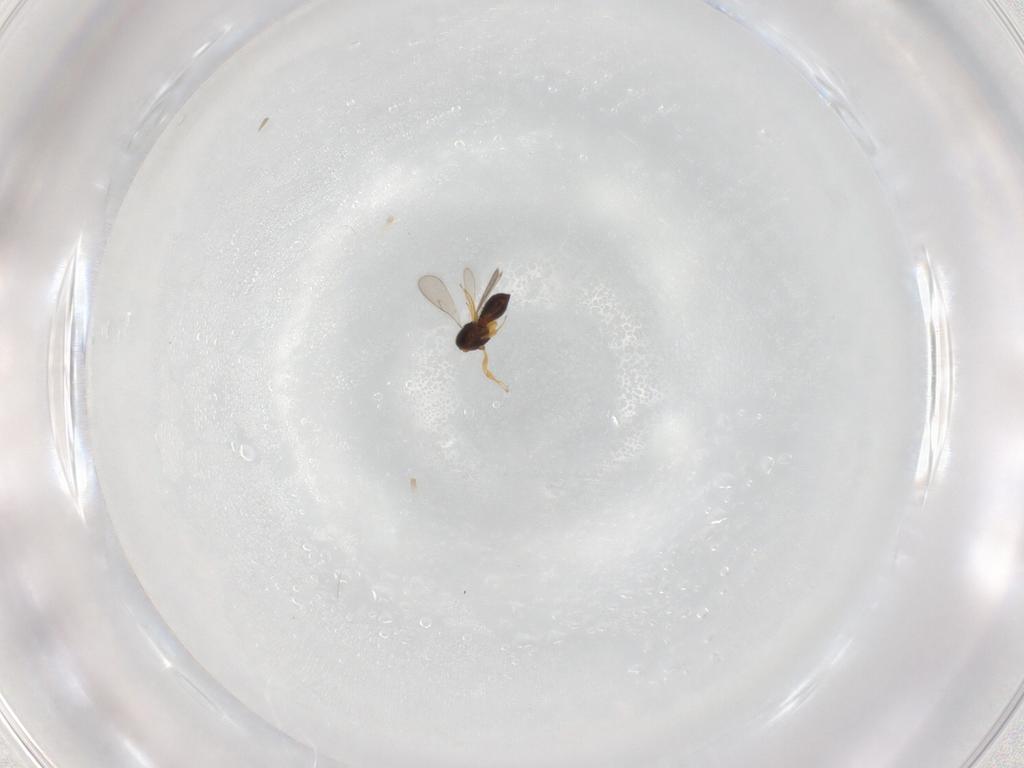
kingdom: Animalia
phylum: Arthropoda
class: Insecta
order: Hymenoptera
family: Scelionidae
